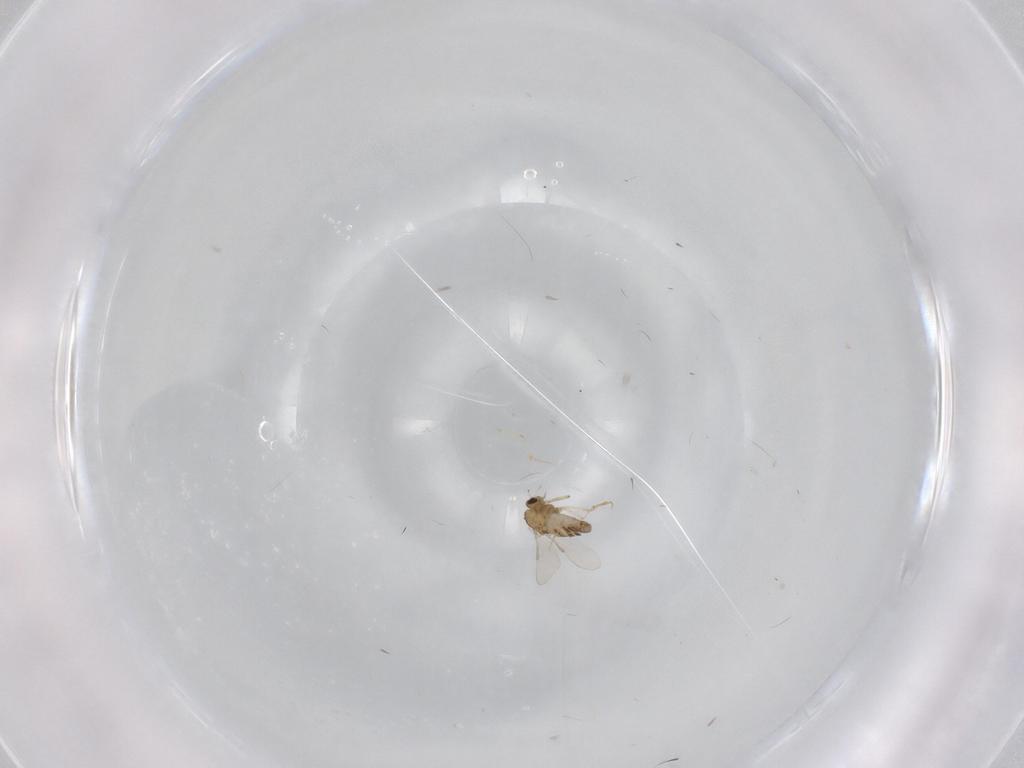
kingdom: Animalia
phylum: Arthropoda
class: Insecta
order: Diptera
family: Chironomidae
